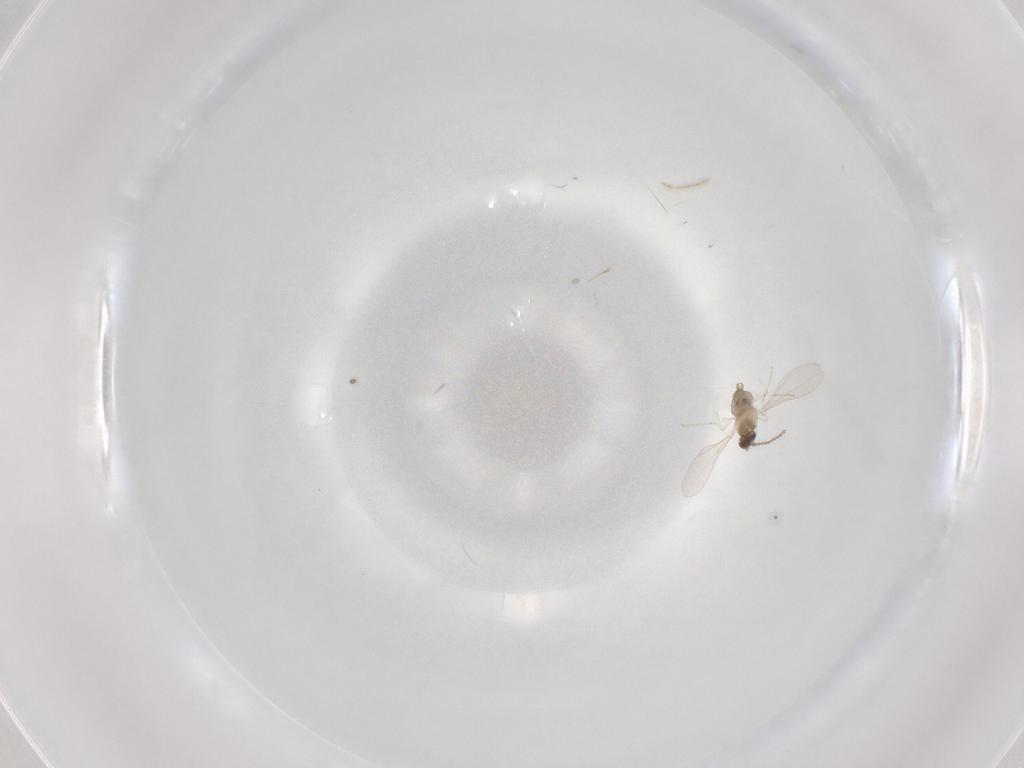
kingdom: Animalia
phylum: Arthropoda
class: Insecta
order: Diptera
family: Cecidomyiidae
